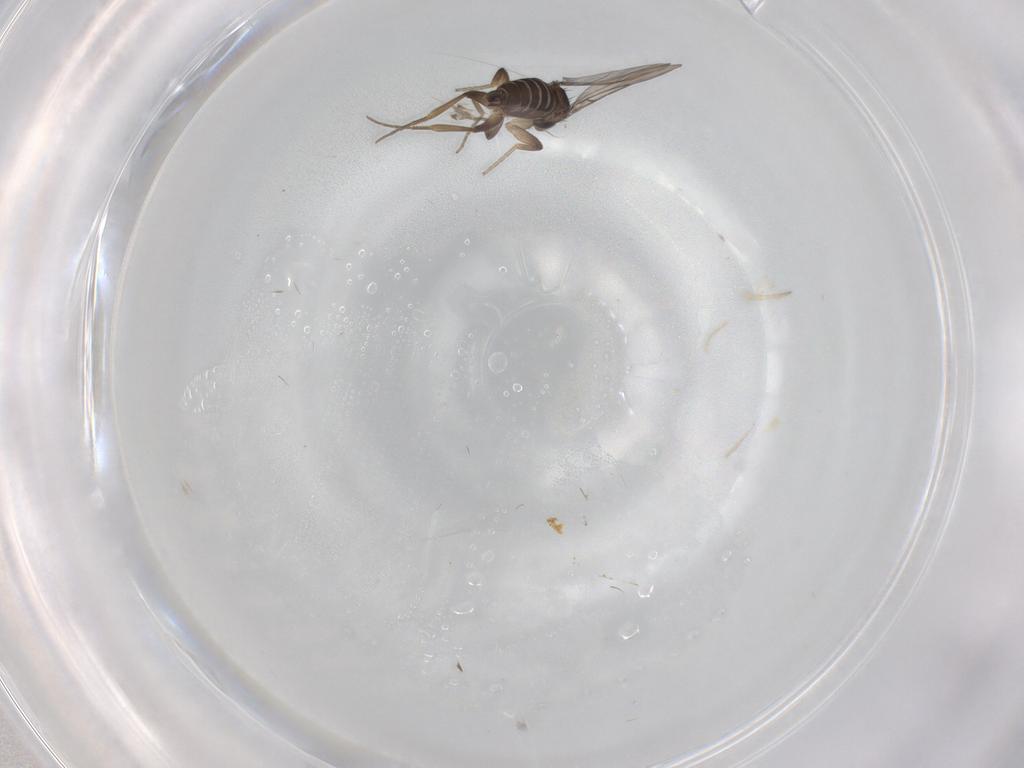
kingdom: Animalia
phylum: Arthropoda
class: Insecta
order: Diptera
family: Phoridae
